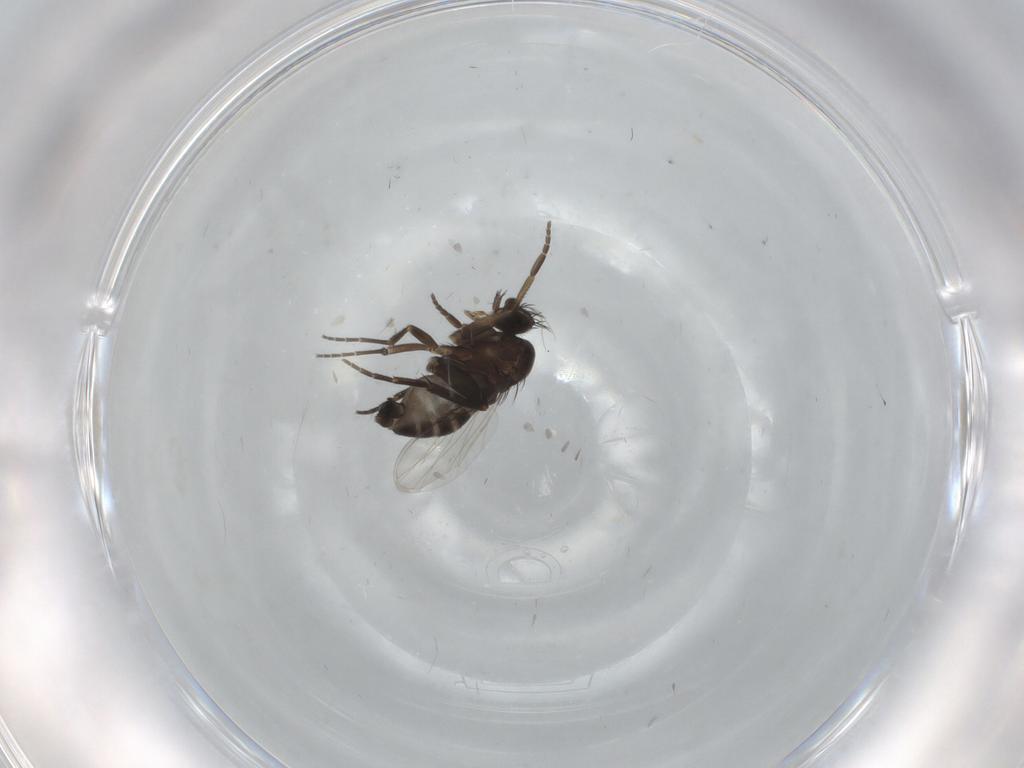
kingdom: Animalia
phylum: Arthropoda
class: Insecta
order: Diptera
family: Phoridae
